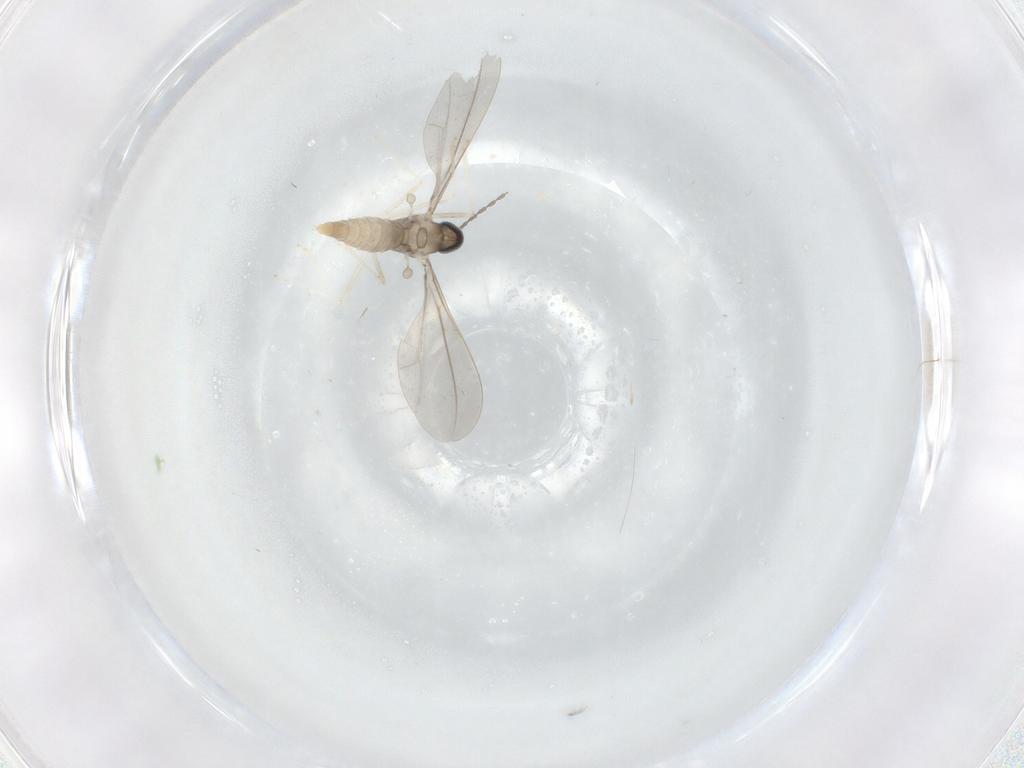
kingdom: Animalia
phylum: Arthropoda
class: Insecta
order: Diptera
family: Cecidomyiidae
